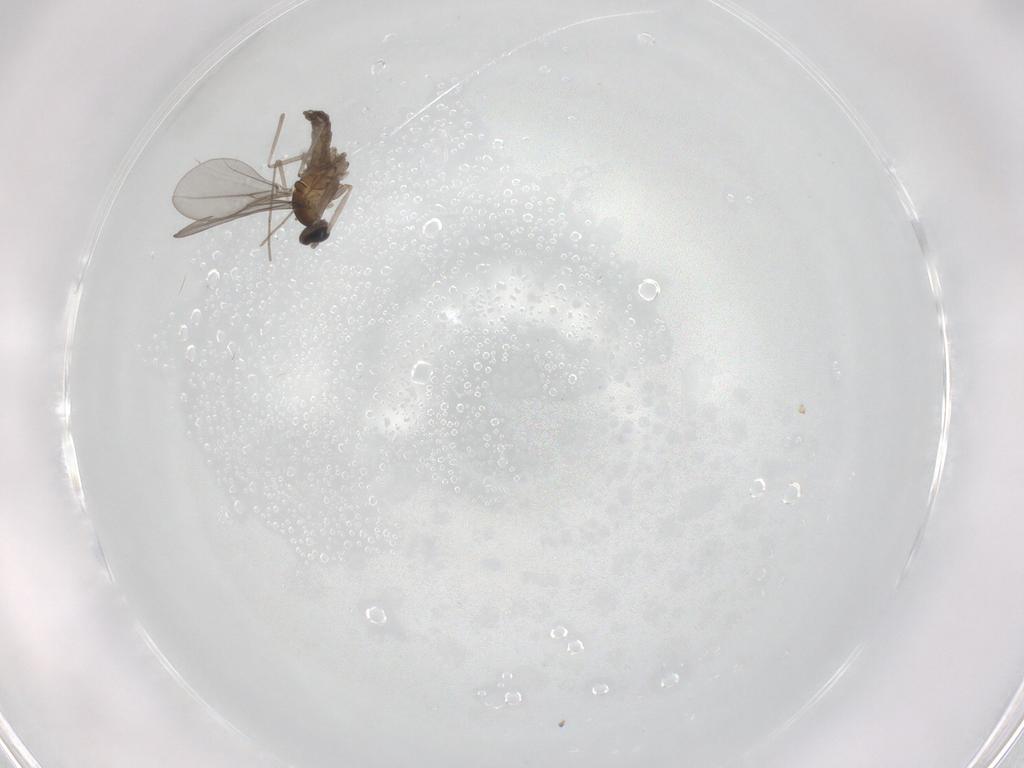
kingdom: Animalia
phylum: Arthropoda
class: Insecta
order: Diptera
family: Cecidomyiidae
